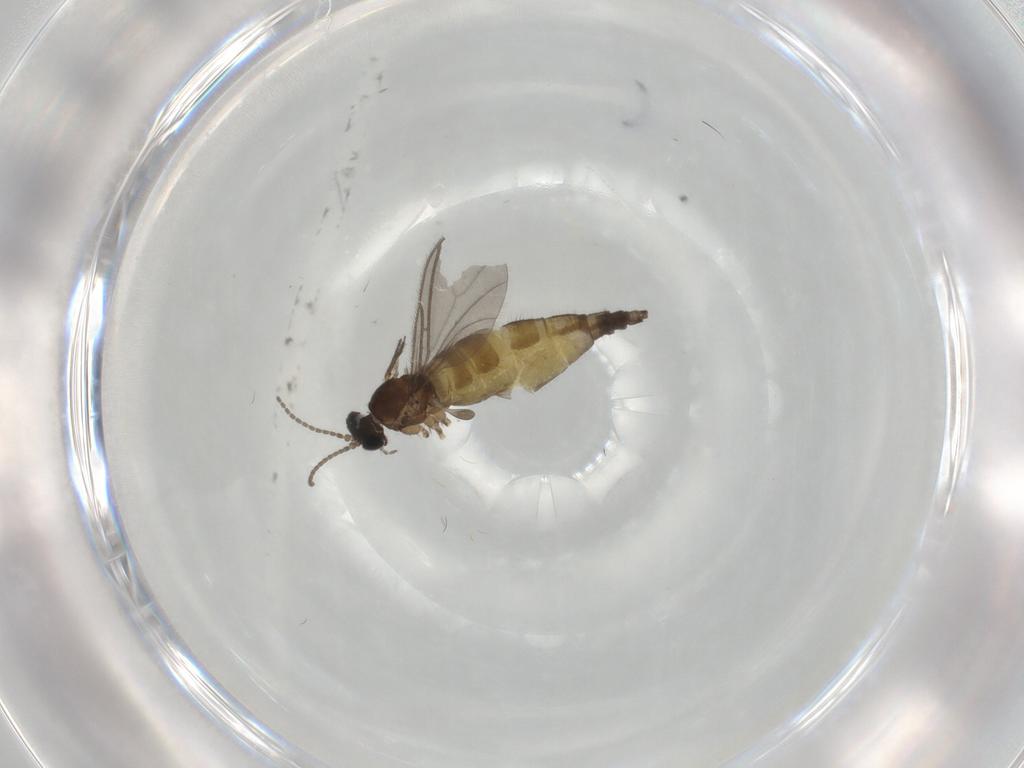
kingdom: Animalia
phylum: Arthropoda
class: Insecta
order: Diptera
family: Sciaridae
